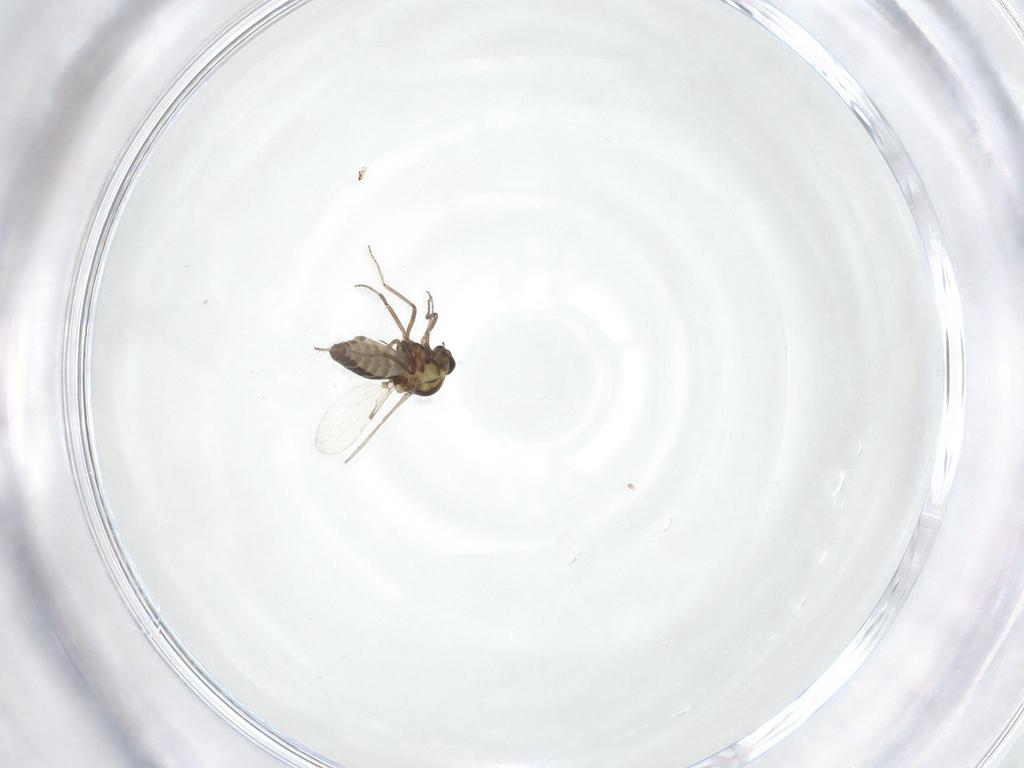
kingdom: Animalia
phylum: Arthropoda
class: Insecta
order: Diptera
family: Ceratopogonidae
